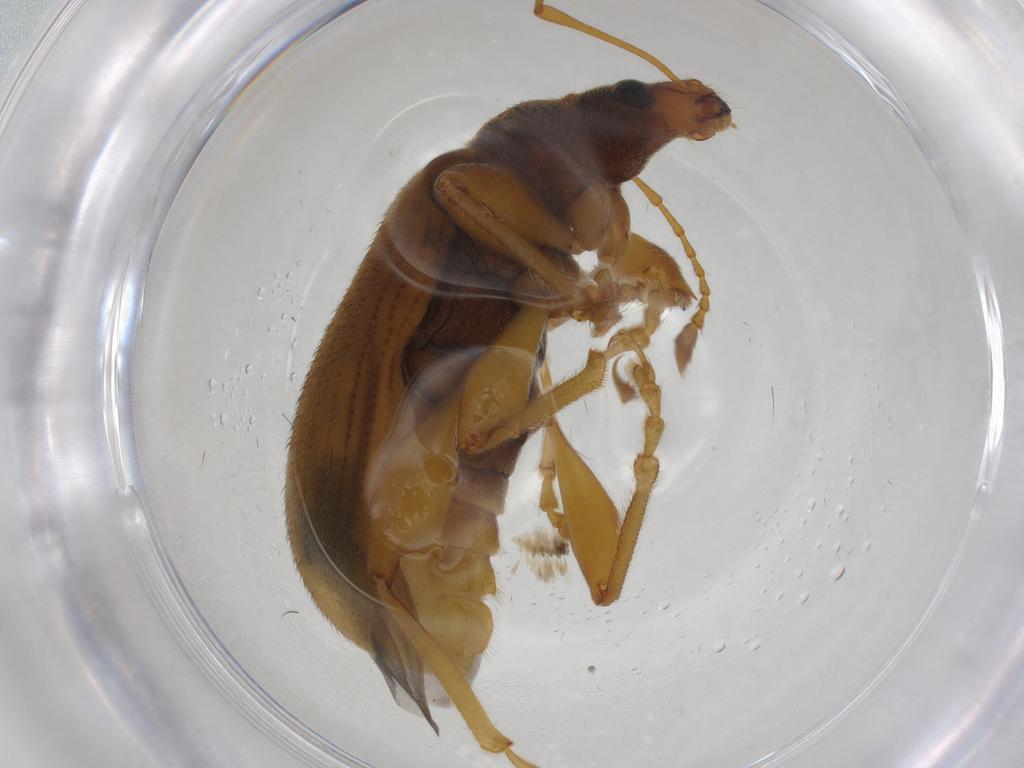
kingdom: Animalia
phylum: Arthropoda
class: Insecta
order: Coleoptera
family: Curculionidae
